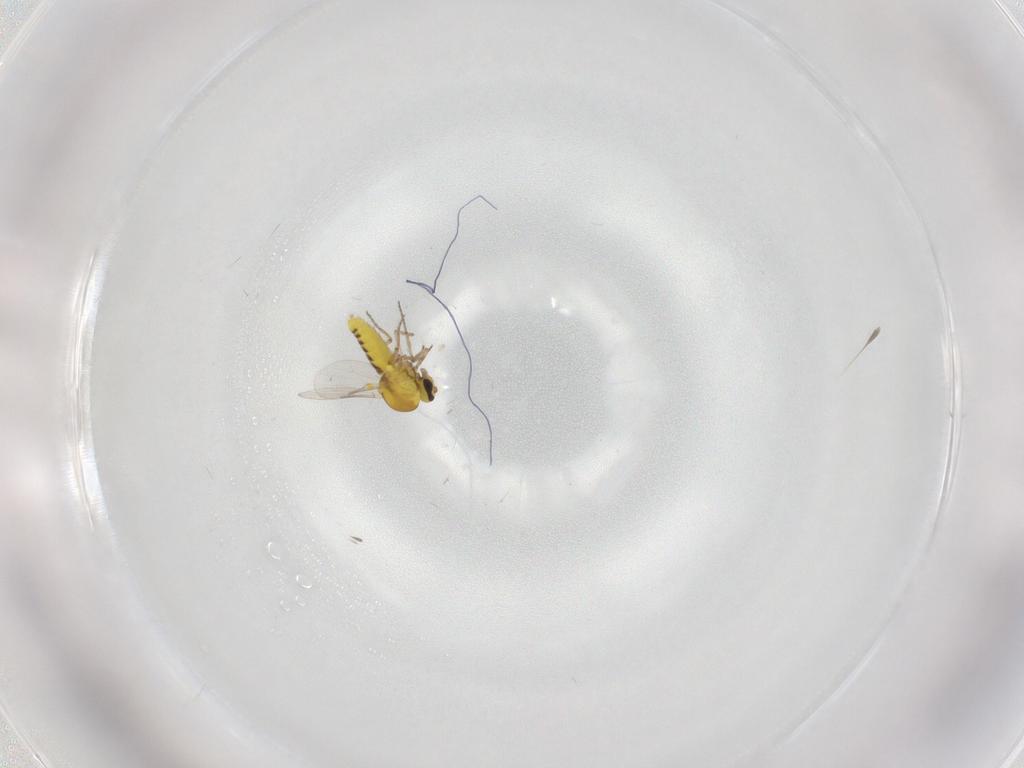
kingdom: Animalia
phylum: Arthropoda
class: Insecta
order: Diptera
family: Ceratopogonidae
